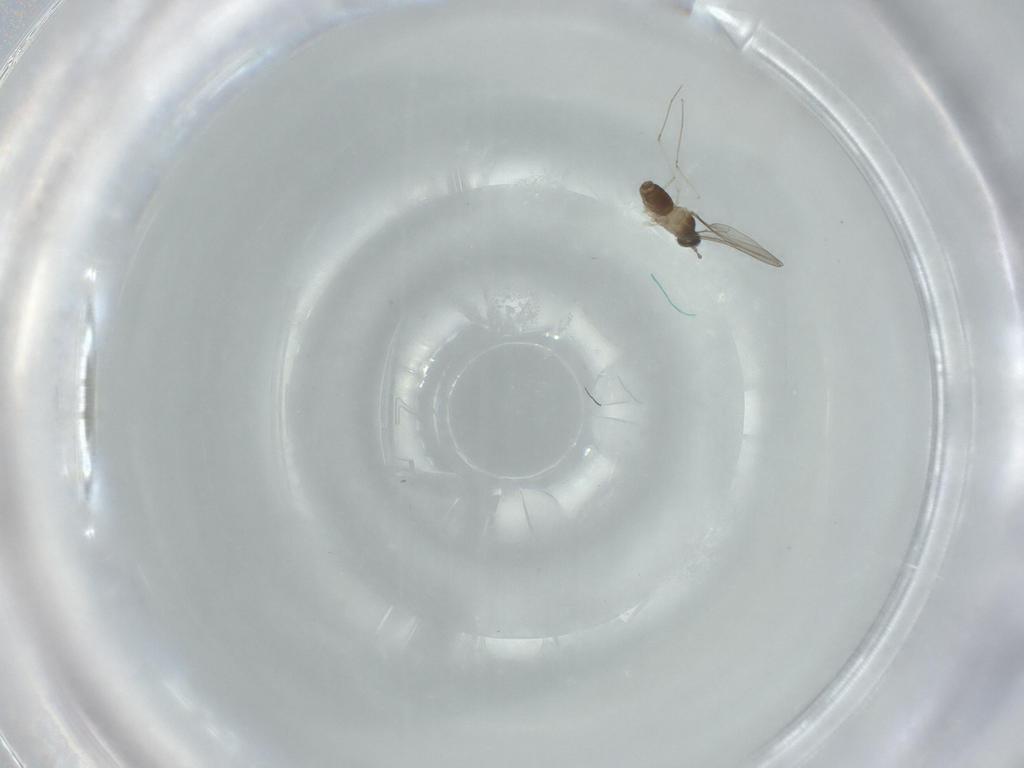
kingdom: Animalia
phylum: Arthropoda
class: Insecta
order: Diptera
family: Cecidomyiidae
